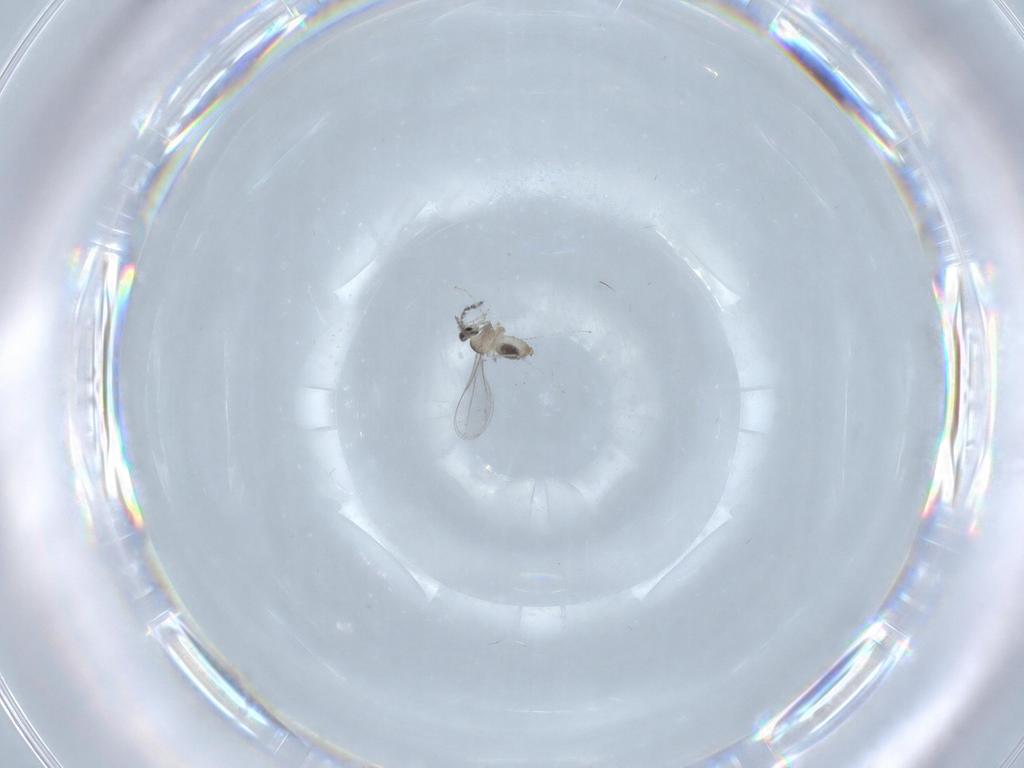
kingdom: Animalia
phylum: Arthropoda
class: Insecta
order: Diptera
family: Cecidomyiidae
